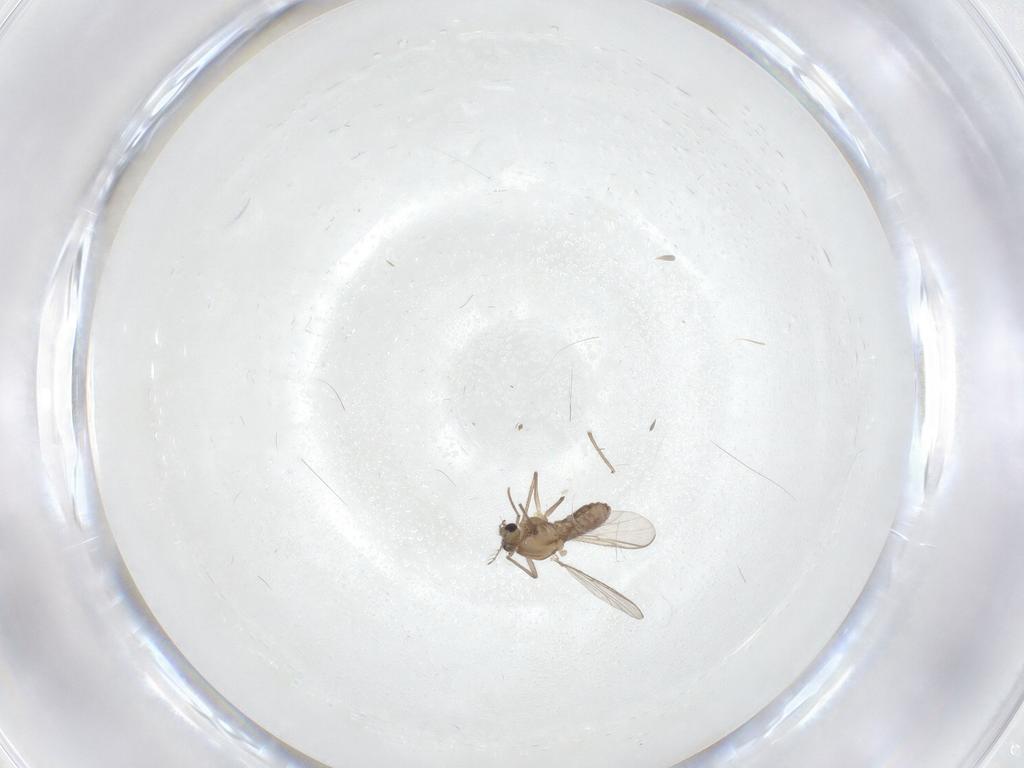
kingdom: Animalia
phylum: Arthropoda
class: Insecta
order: Diptera
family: Chironomidae
